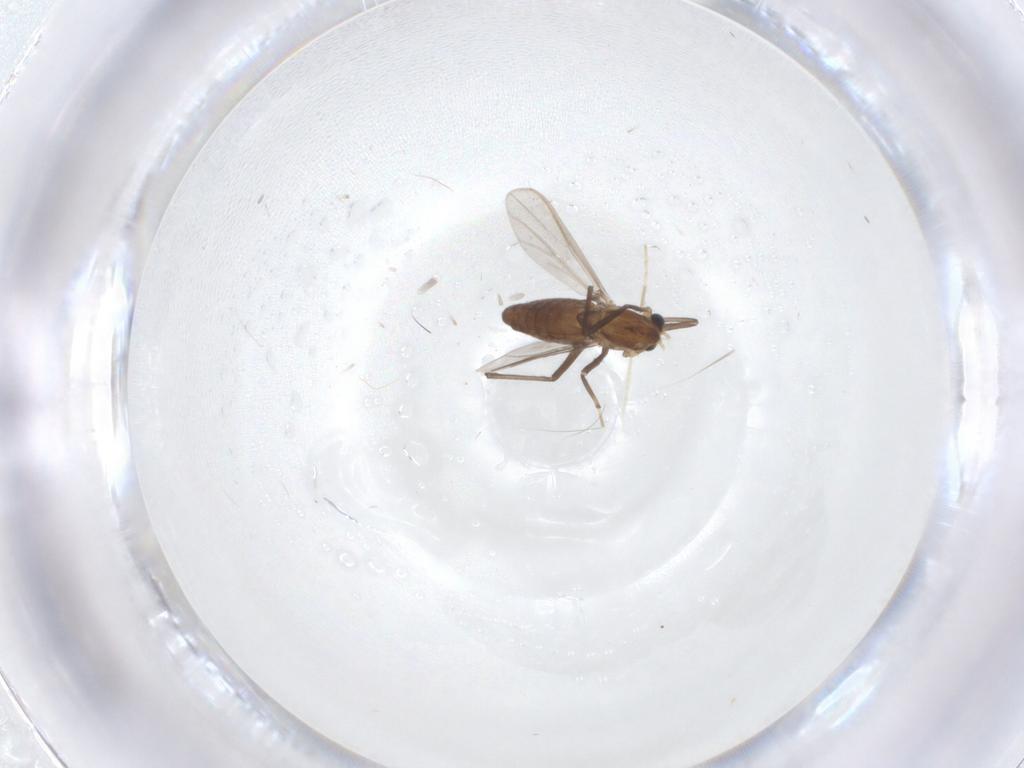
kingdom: Animalia
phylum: Arthropoda
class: Insecta
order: Diptera
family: Chironomidae
